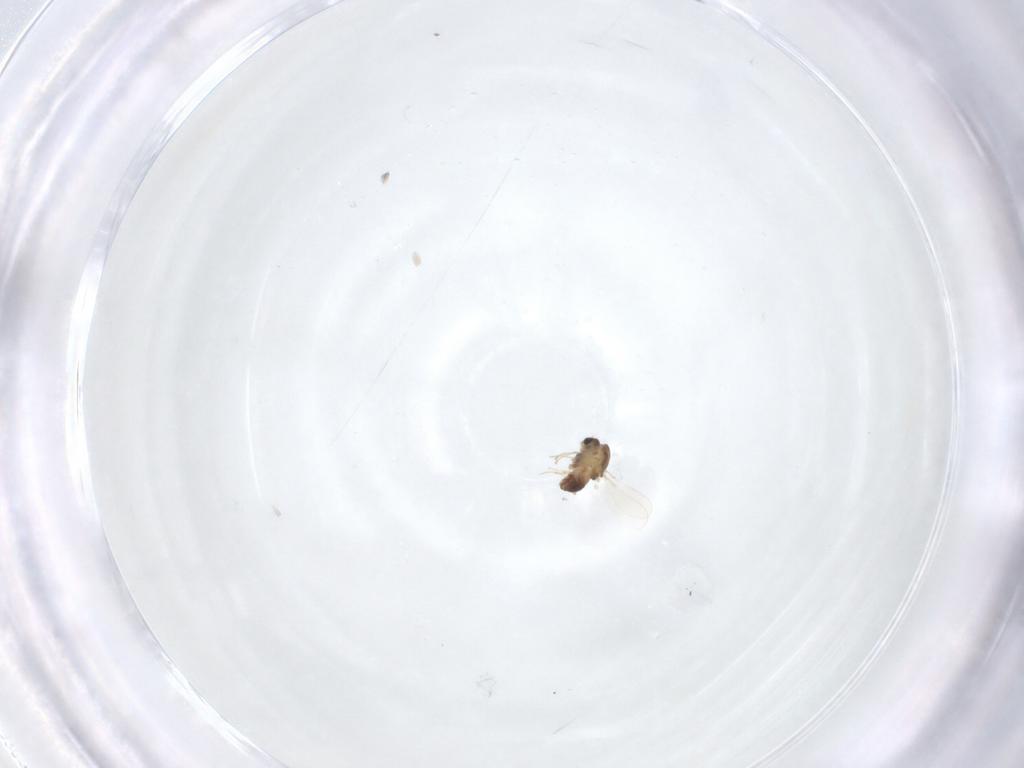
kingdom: Animalia
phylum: Arthropoda
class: Insecta
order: Diptera
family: Chironomidae
